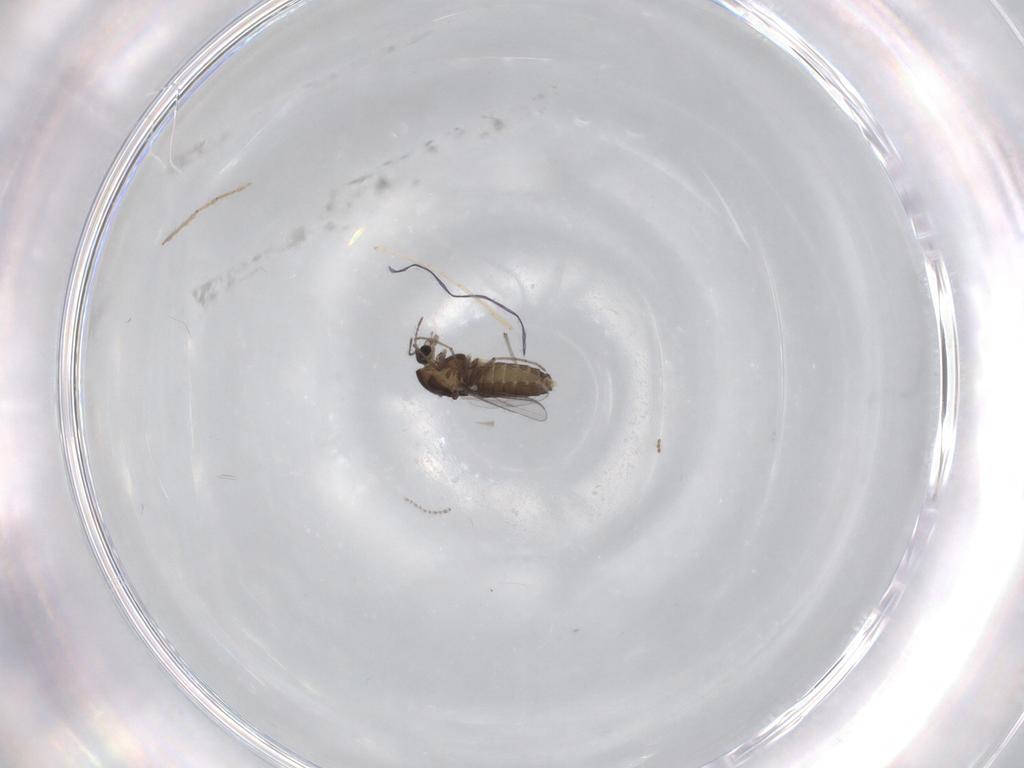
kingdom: Animalia
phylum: Arthropoda
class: Insecta
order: Diptera
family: Chironomidae
